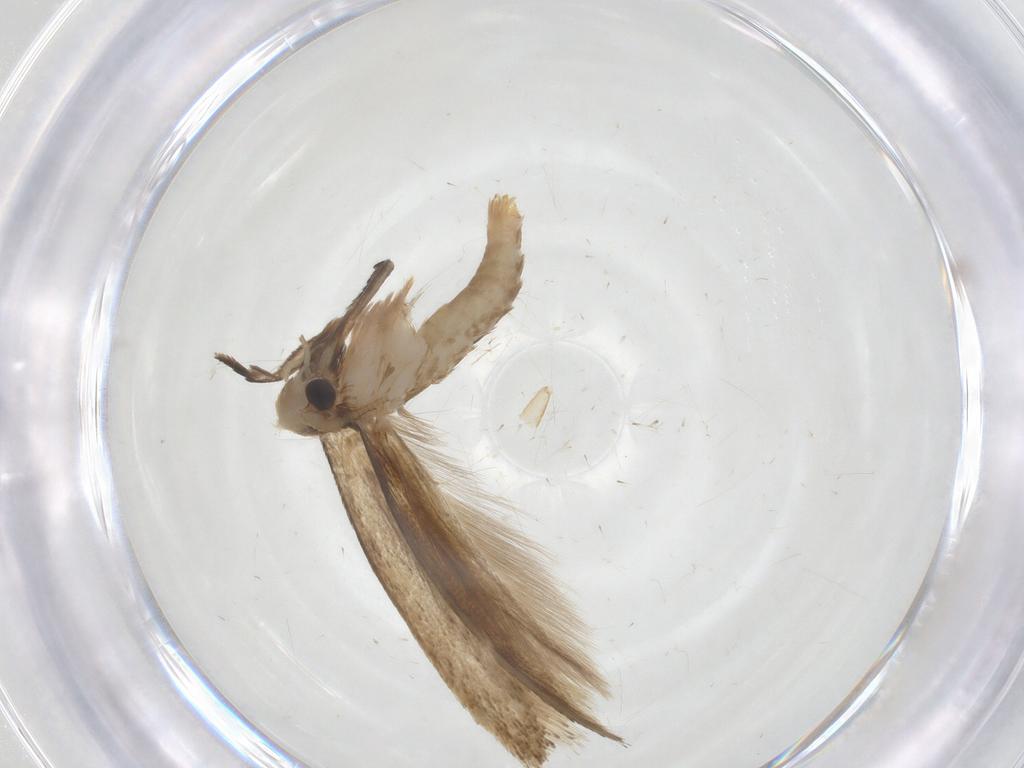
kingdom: Animalia
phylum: Arthropoda
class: Insecta
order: Lepidoptera
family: Tineidae
